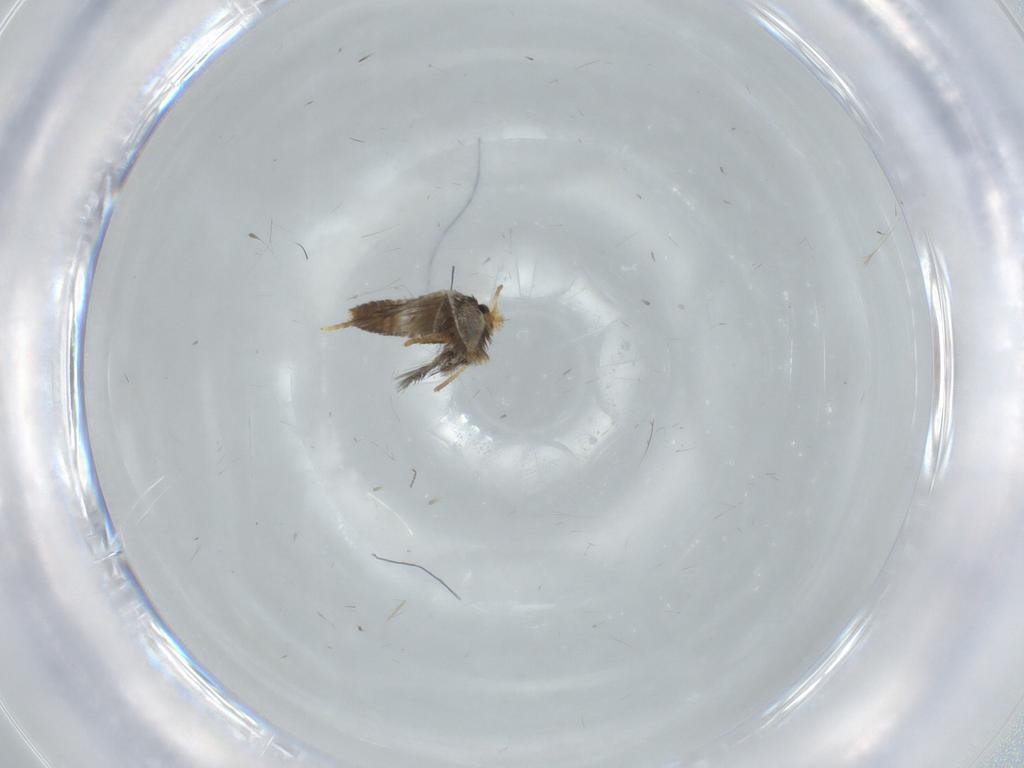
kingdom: Animalia
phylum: Arthropoda
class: Insecta
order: Lepidoptera
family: Copromorphidae
